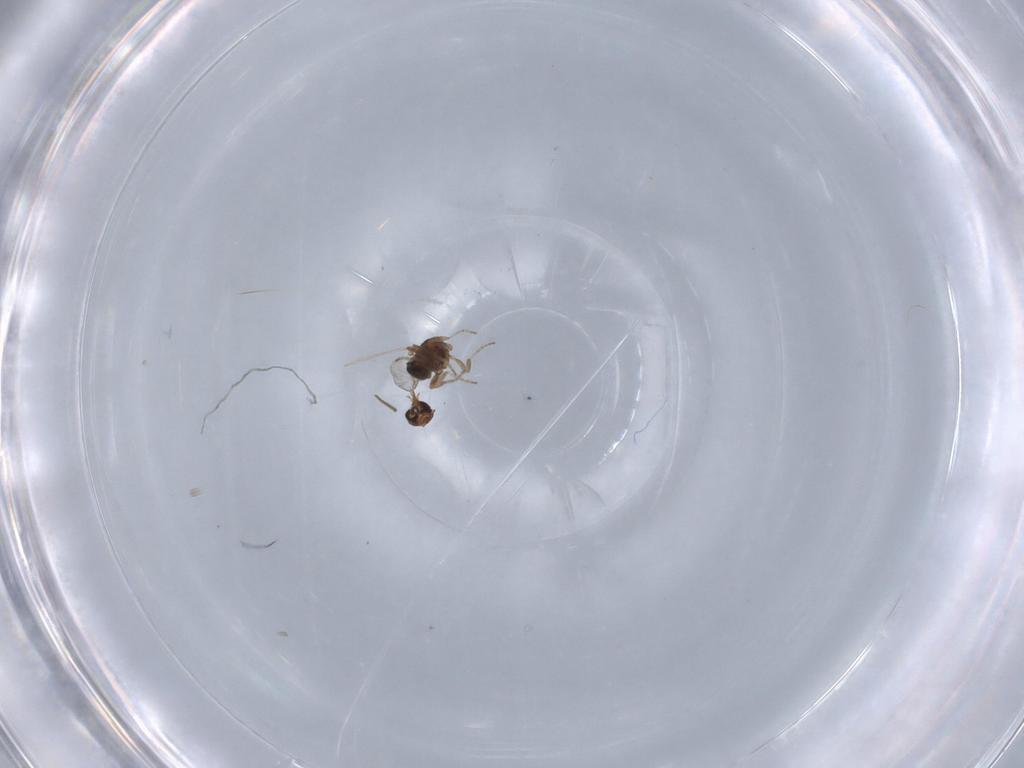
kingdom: Animalia
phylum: Arthropoda
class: Insecta
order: Diptera
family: Ceratopogonidae
